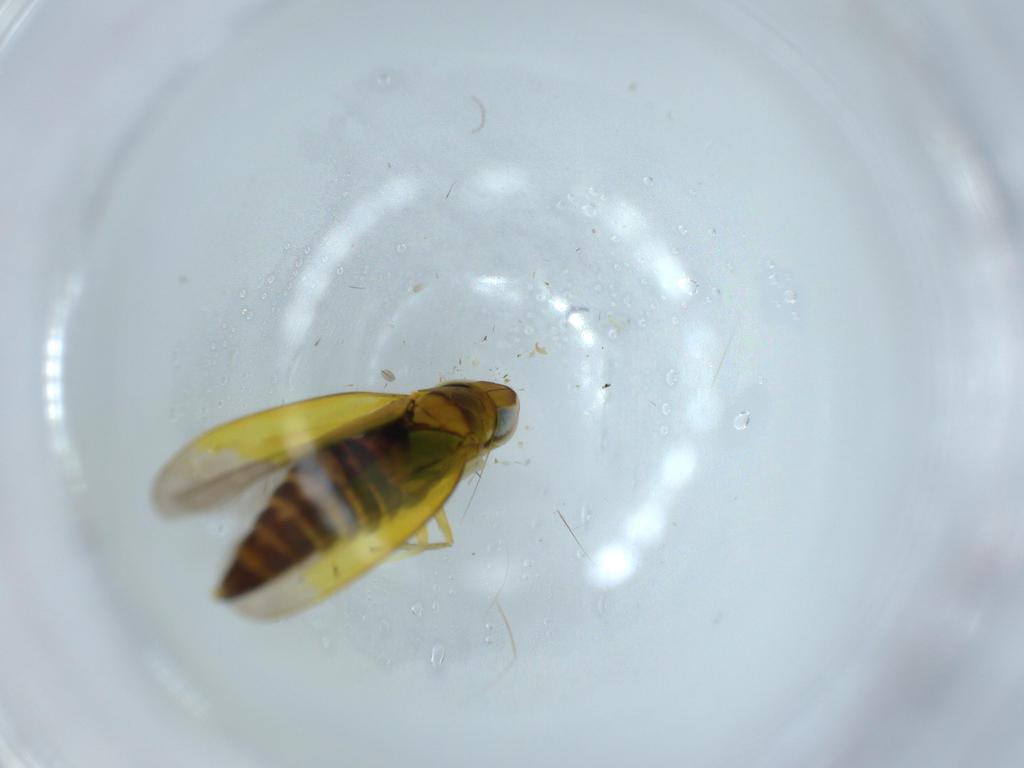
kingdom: Animalia
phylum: Arthropoda
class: Insecta
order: Hemiptera
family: Cicadellidae
